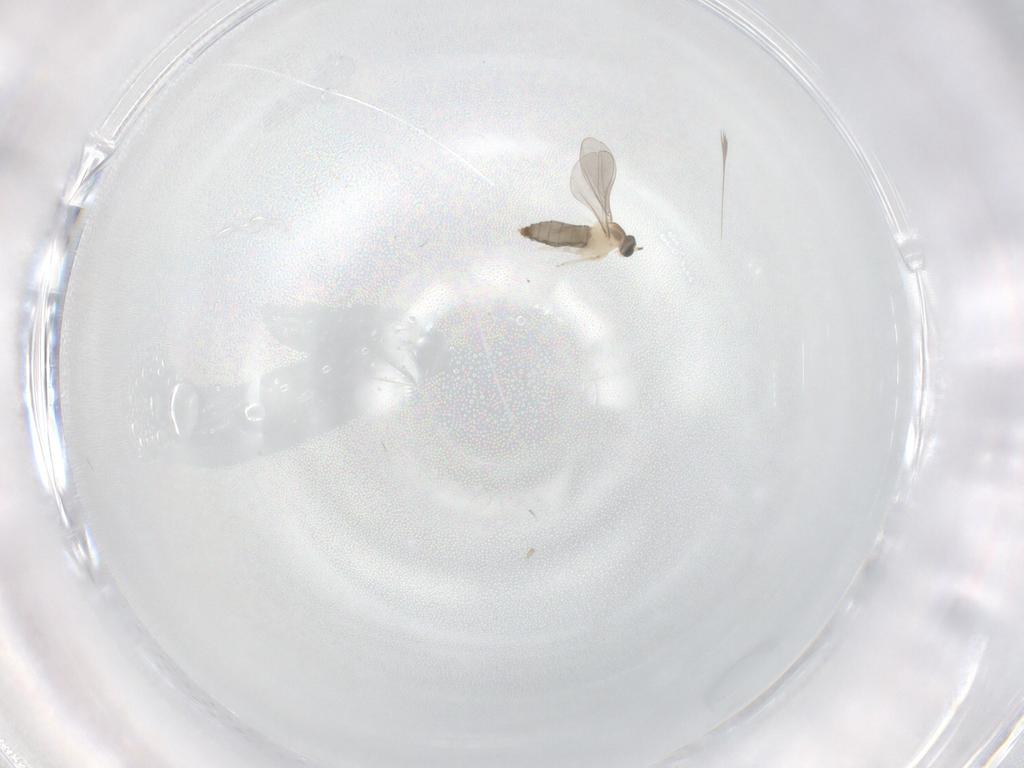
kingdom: Animalia
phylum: Arthropoda
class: Insecta
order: Diptera
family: Cecidomyiidae
